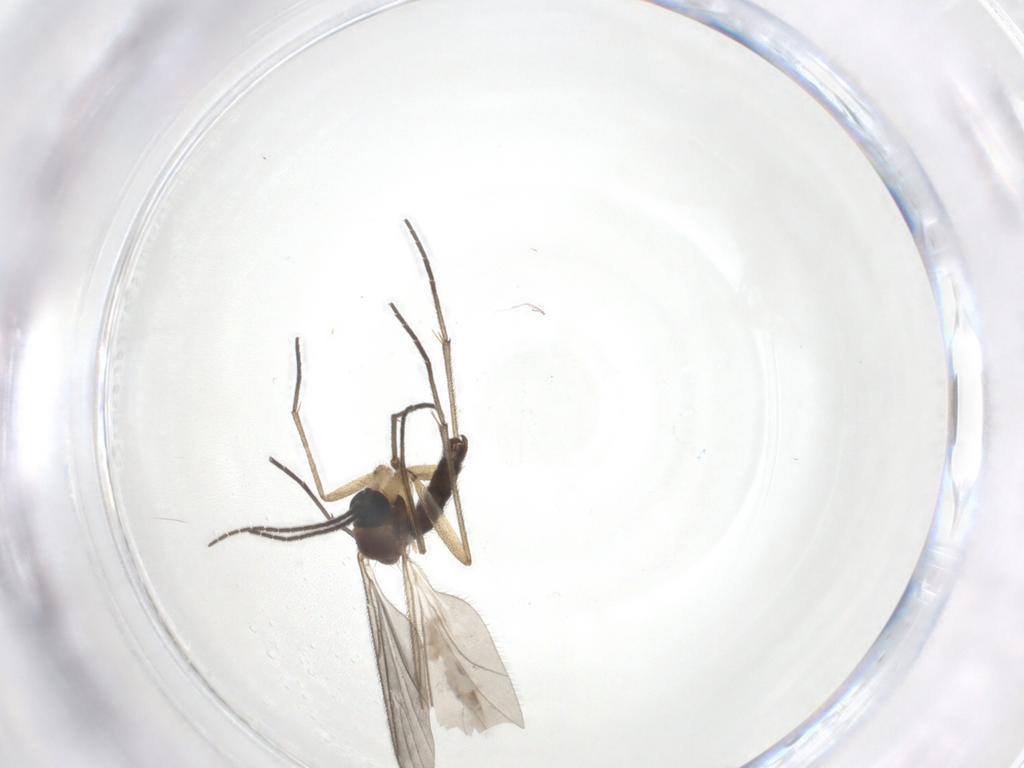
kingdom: Animalia
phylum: Arthropoda
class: Insecta
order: Diptera
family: Sciaridae
